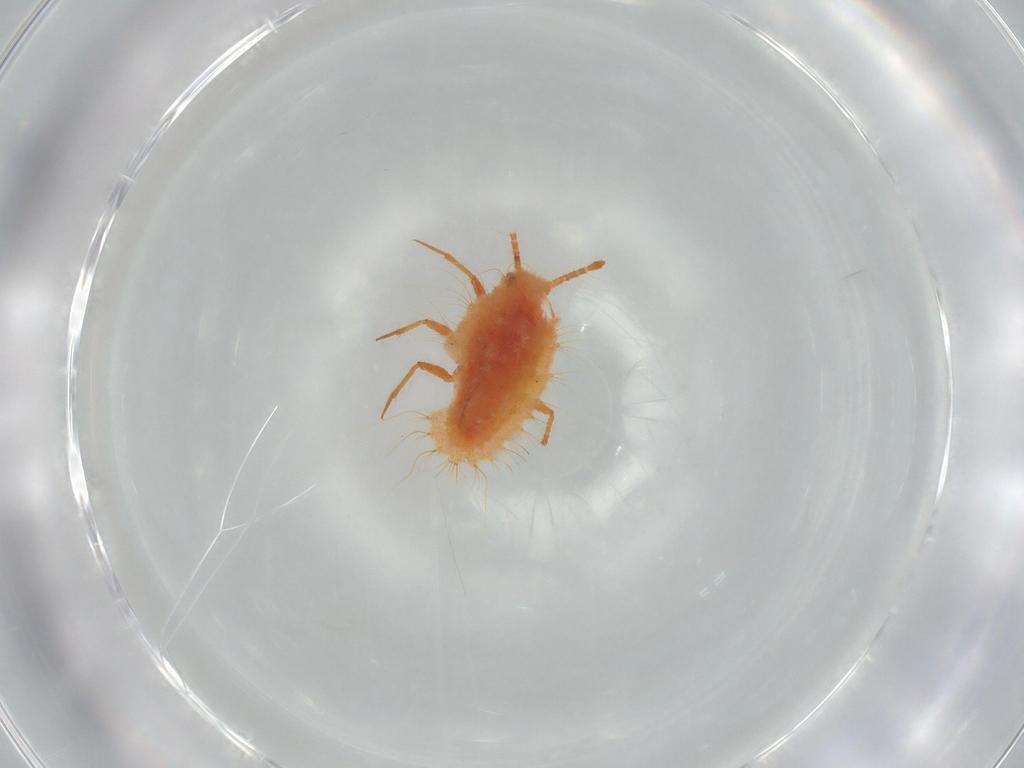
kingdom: Animalia
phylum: Arthropoda
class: Insecta
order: Hemiptera
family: Coccoidea_incertae_sedis
